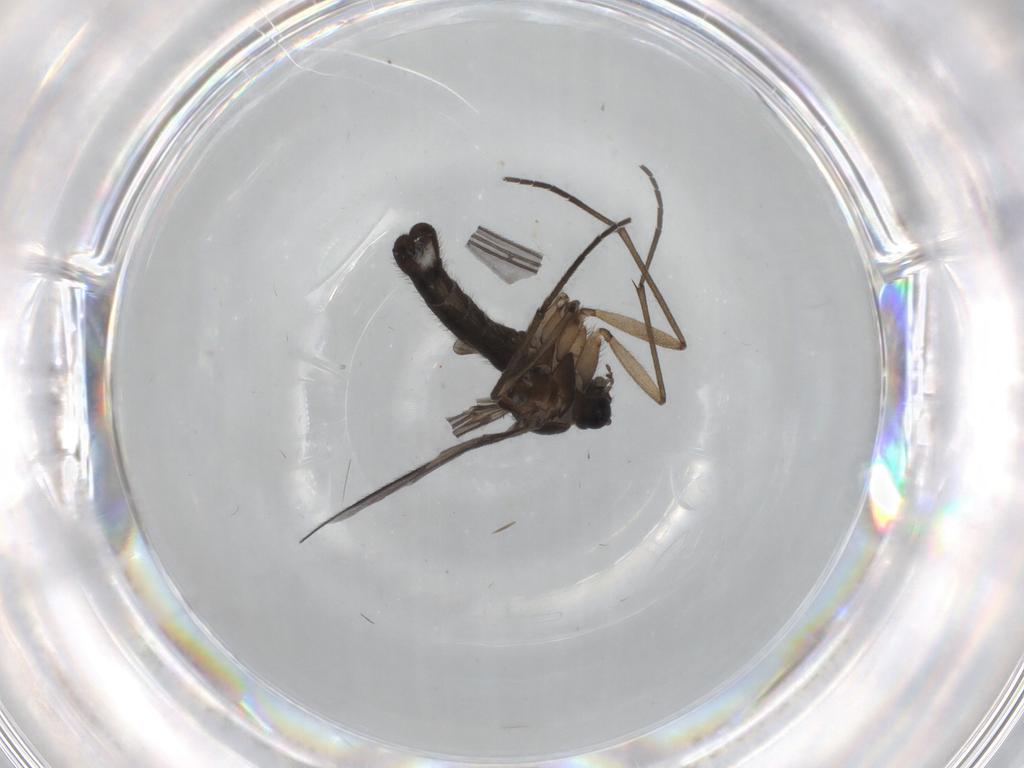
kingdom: Animalia
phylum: Arthropoda
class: Insecta
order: Diptera
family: Sciaridae
